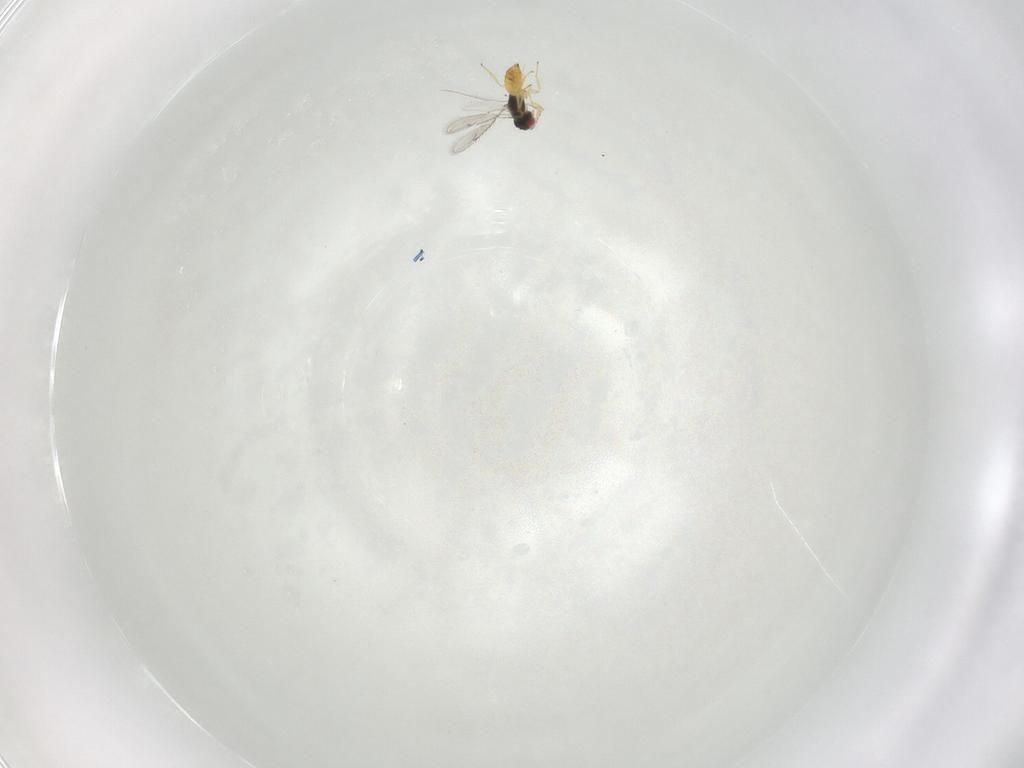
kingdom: Animalia
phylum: Arthropoda
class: Insecta
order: Hymenoptera
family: Eulophidae
